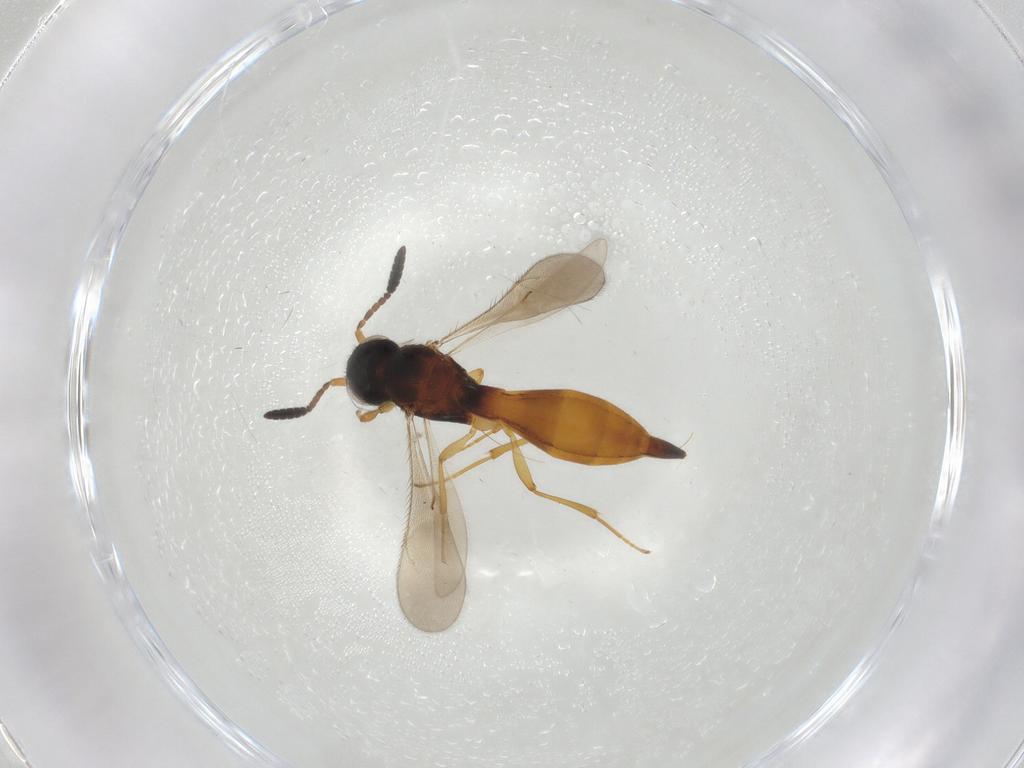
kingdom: Animalia
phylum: Arthropoda
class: Insecta
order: Hymenoptera
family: Scelionidae
